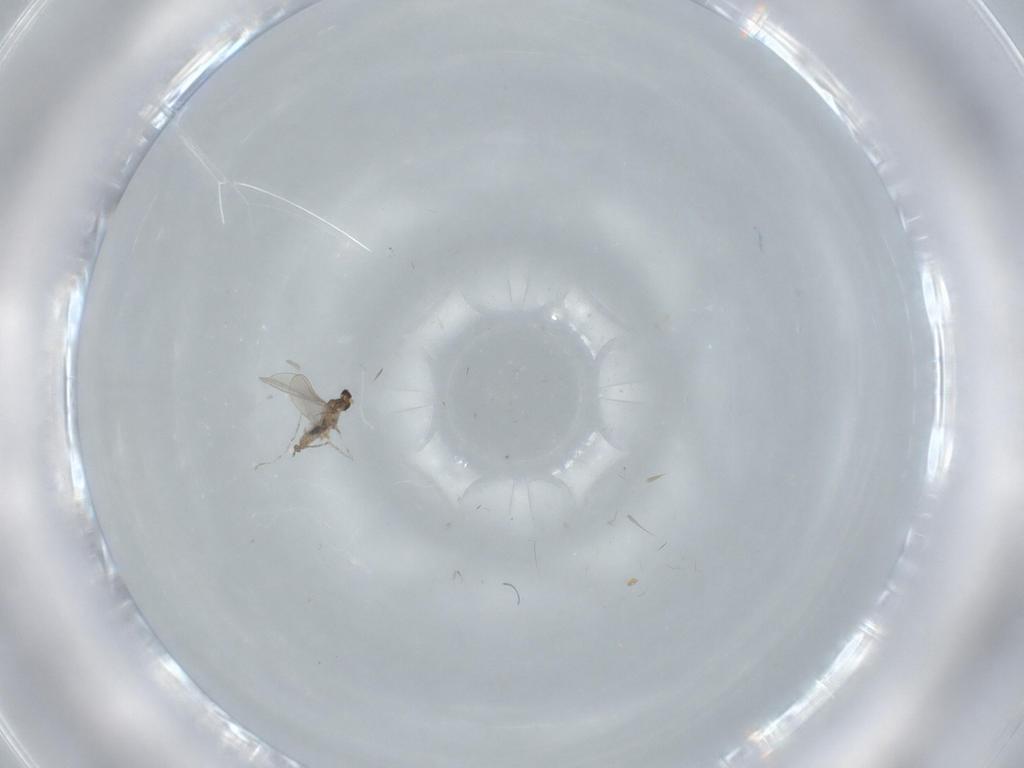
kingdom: Animalia
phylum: Arthropoda
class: Insecta
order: Diptera
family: Cecidomyiidae
